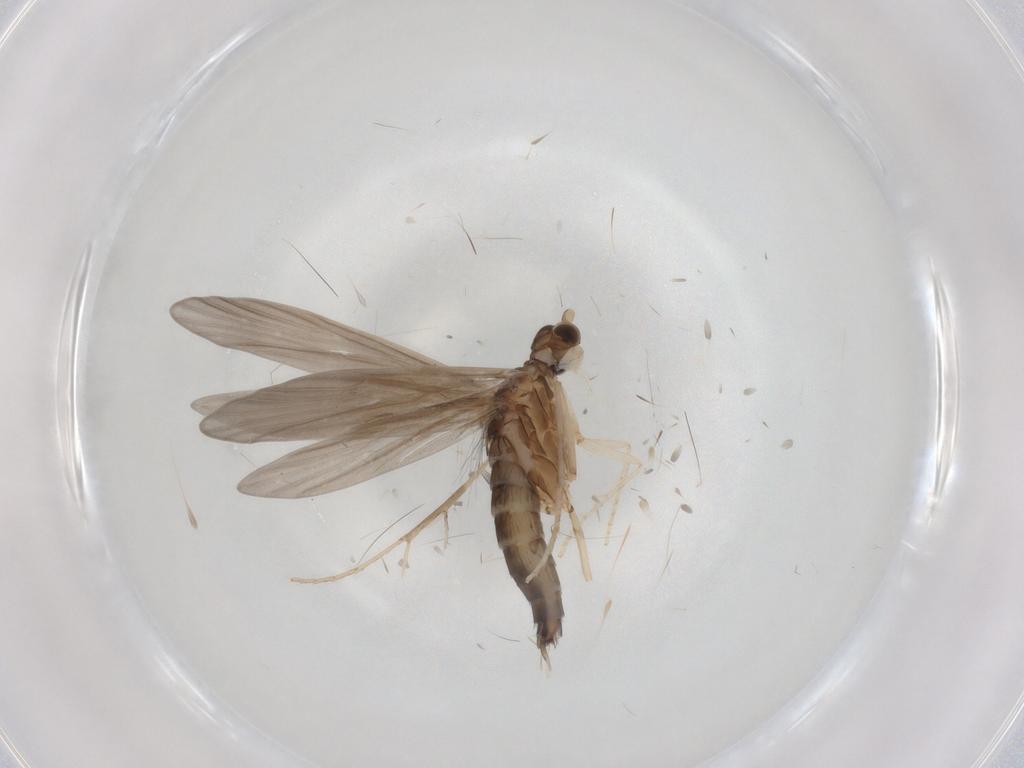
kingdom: Animalia
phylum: Arthropoda
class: Insecta
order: Trichoptera
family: Xiphocentronidae
